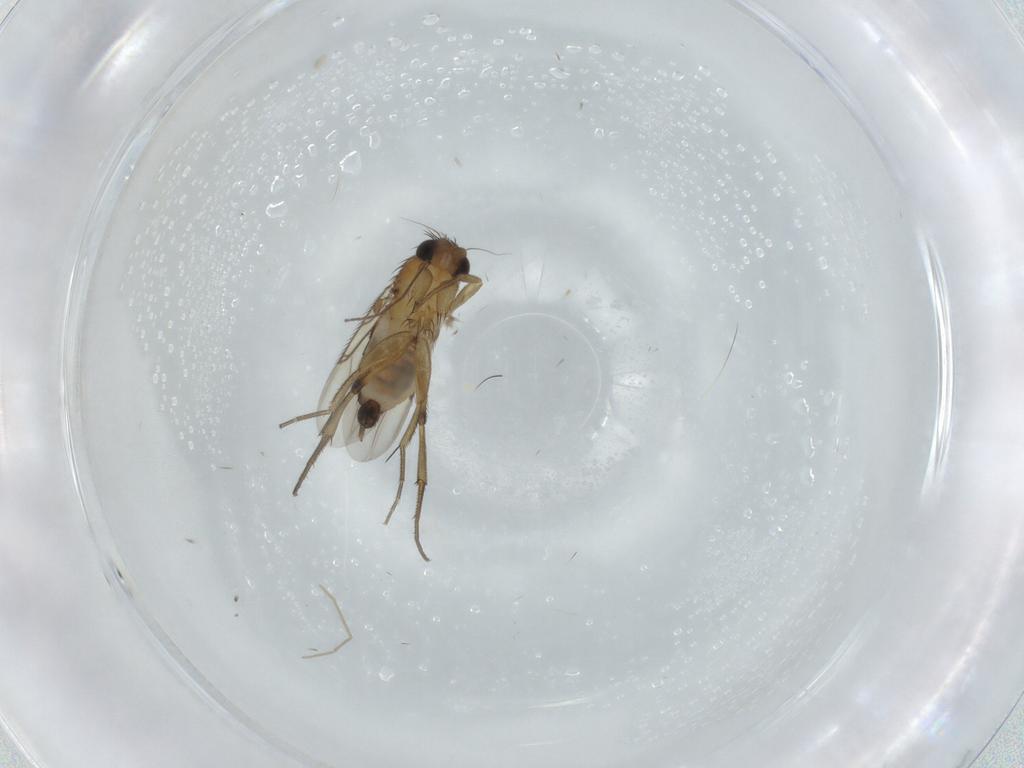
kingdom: Animalia
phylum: Arthropoda
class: Insecta
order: Diptera
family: Phoridae
